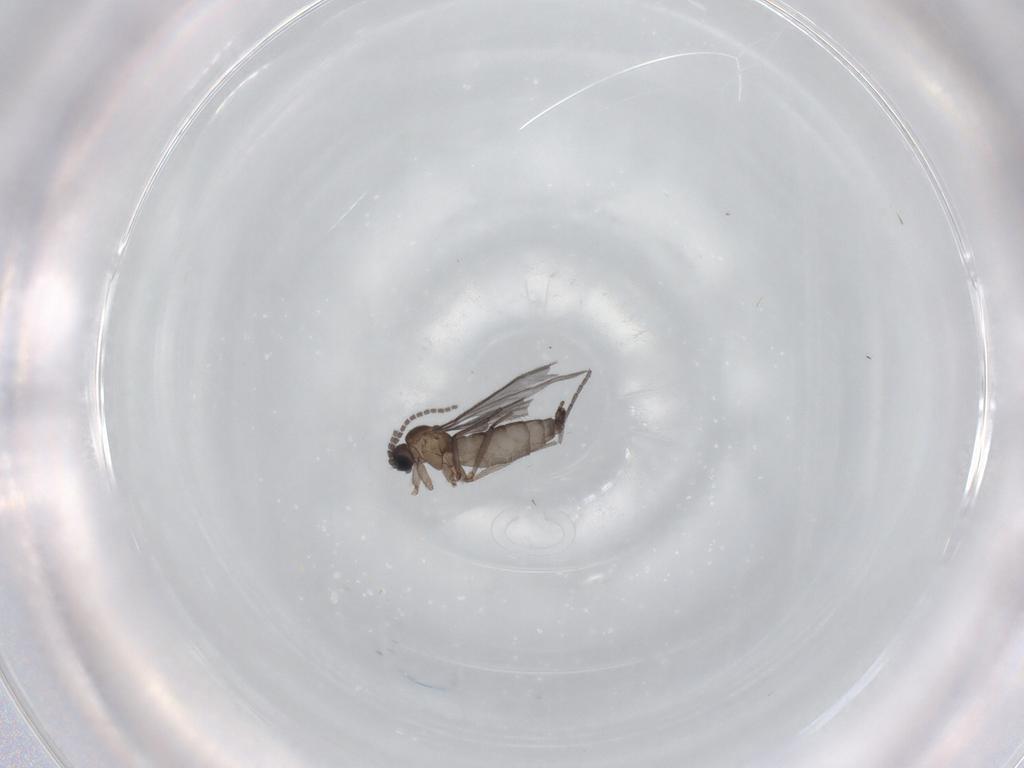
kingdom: Animalia
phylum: Arthropoda
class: Insecta
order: Diptera
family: Sciaridae
